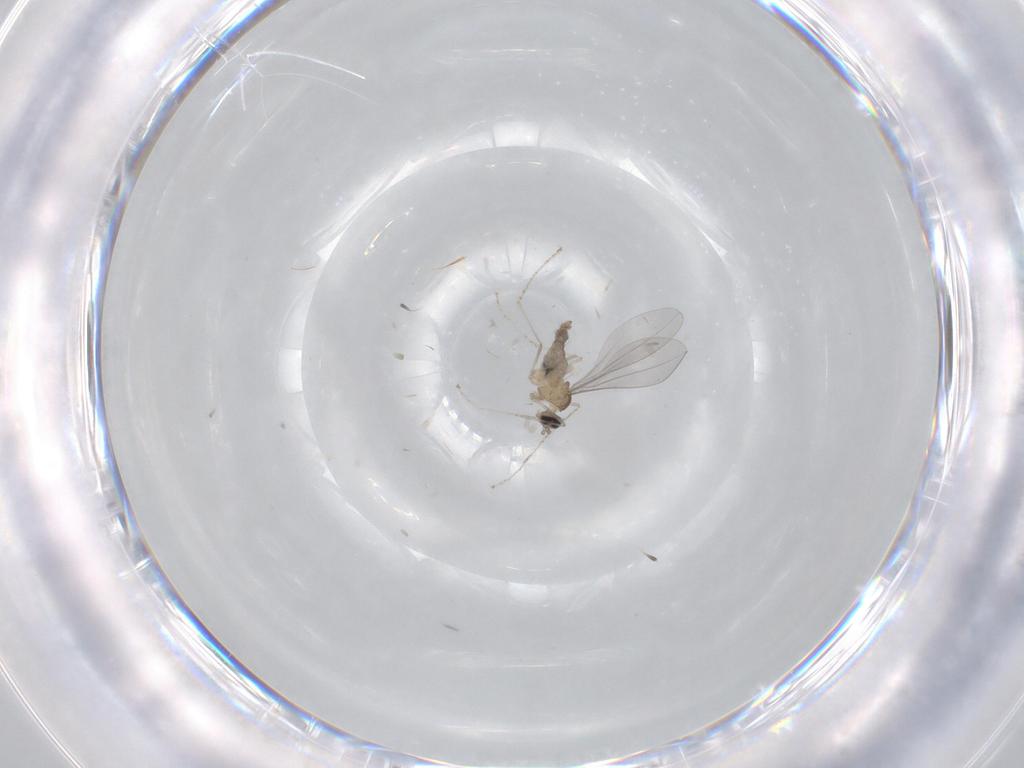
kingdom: Animalia
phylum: Arthropoda
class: Insecta
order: Diptera
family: Cecidomyiidae
